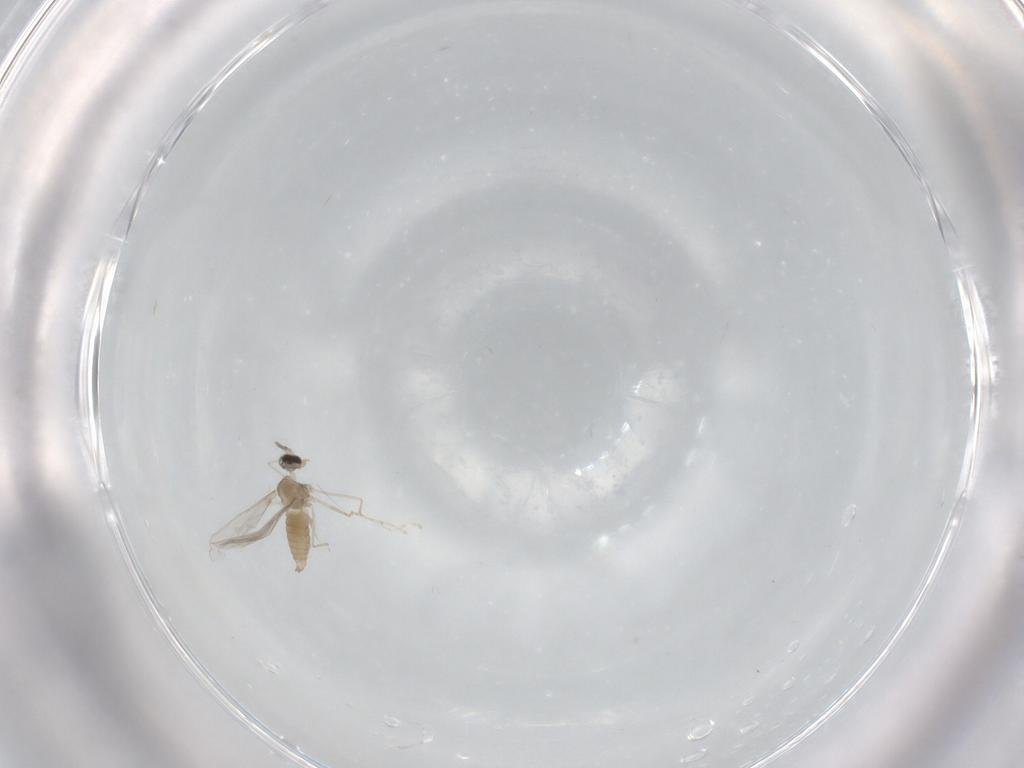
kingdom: Animalia
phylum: Arthropoda
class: Insecta
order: Diptera
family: Cecidomyiidae
